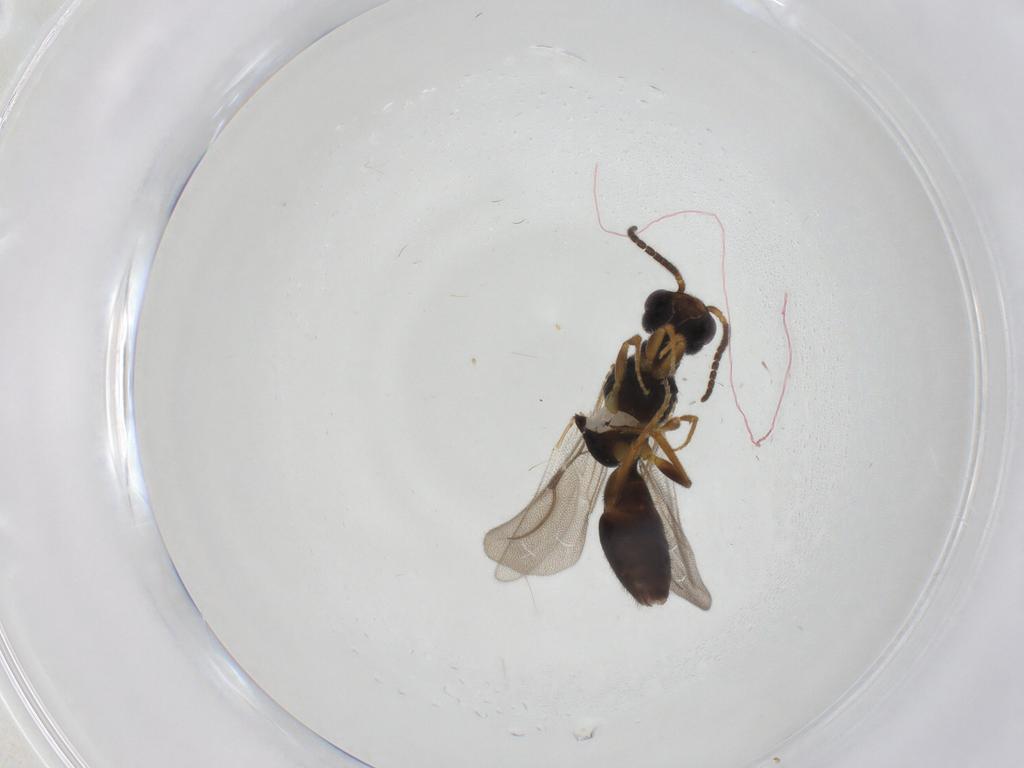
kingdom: Animalia
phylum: Arthropoda
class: Insecta
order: Hymenoptera
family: Bethylidae
